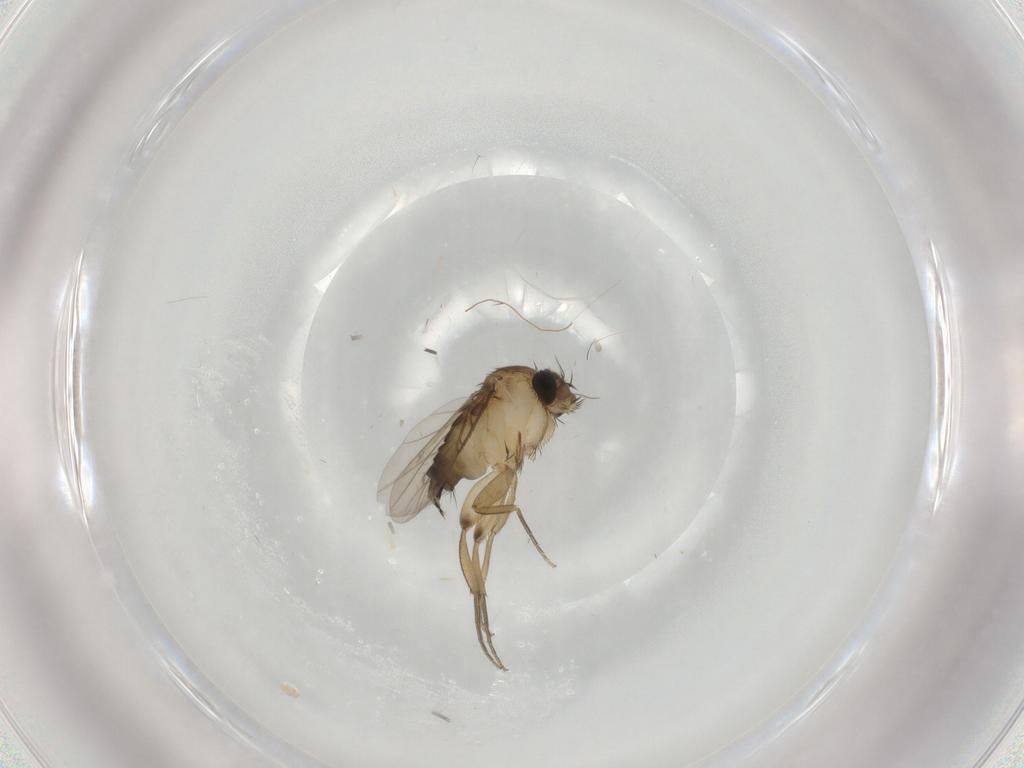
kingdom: Animalia
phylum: Arthropoda
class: Insecta
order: Diptera
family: Phoridae
